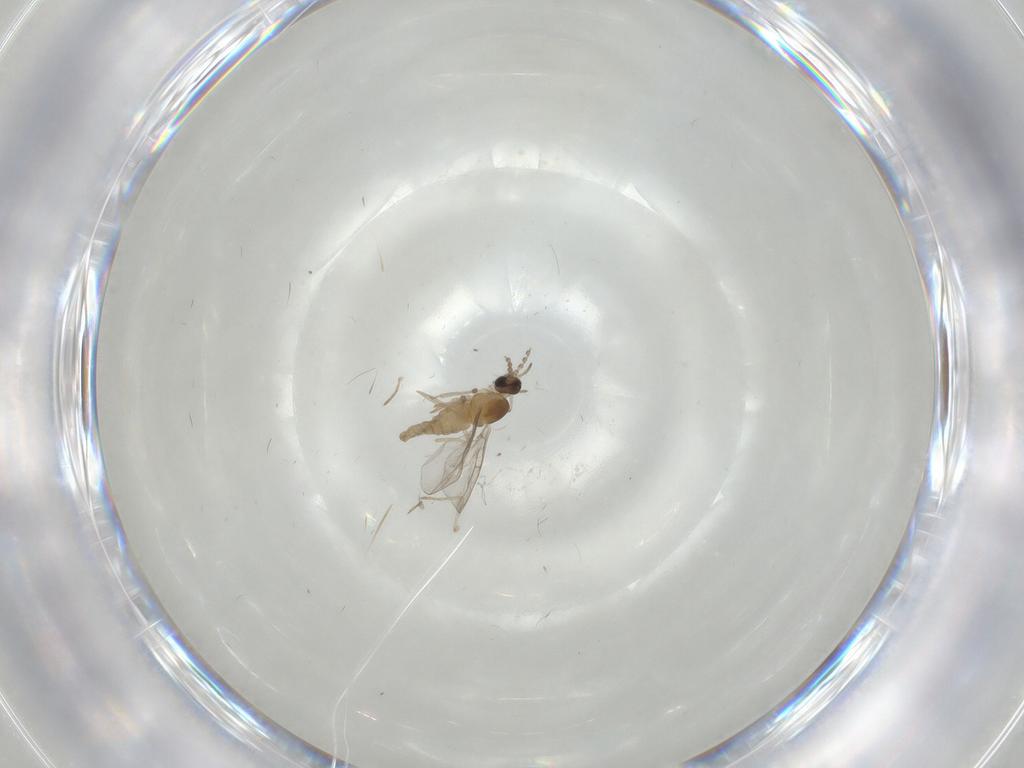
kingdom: Animalia
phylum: Arthropoda
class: Insecta
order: Diptera
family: Cecidomyiidae
